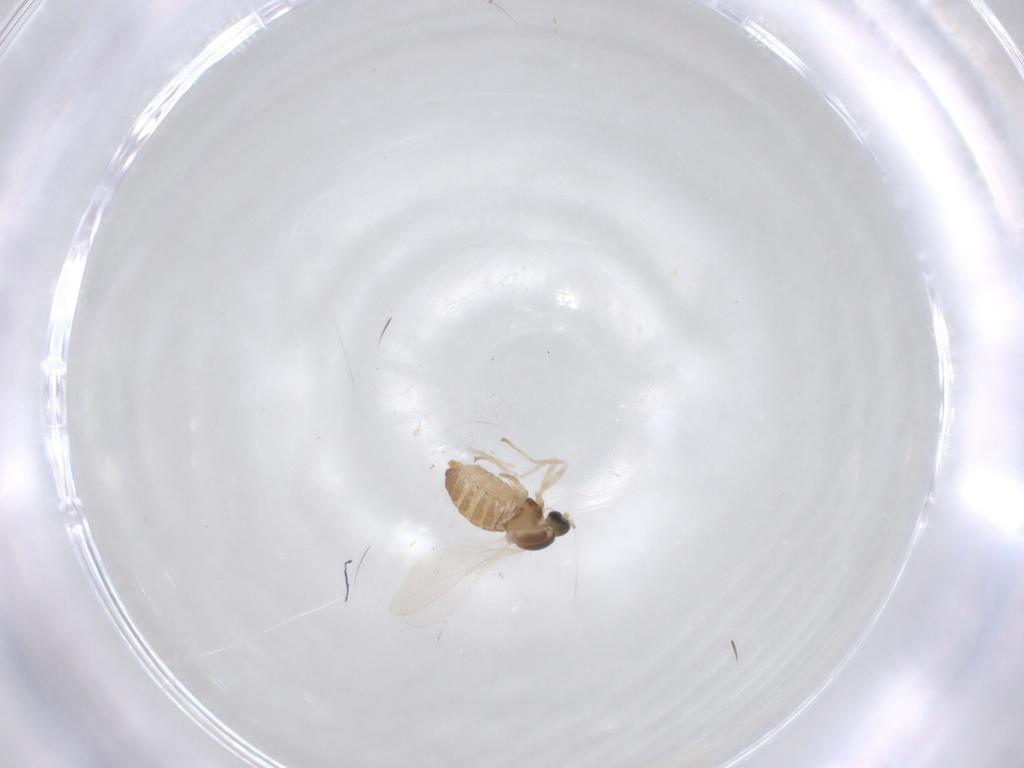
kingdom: Animalia
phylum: Arthropoda
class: Insecta
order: Diptera
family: Cecidomyiidae
